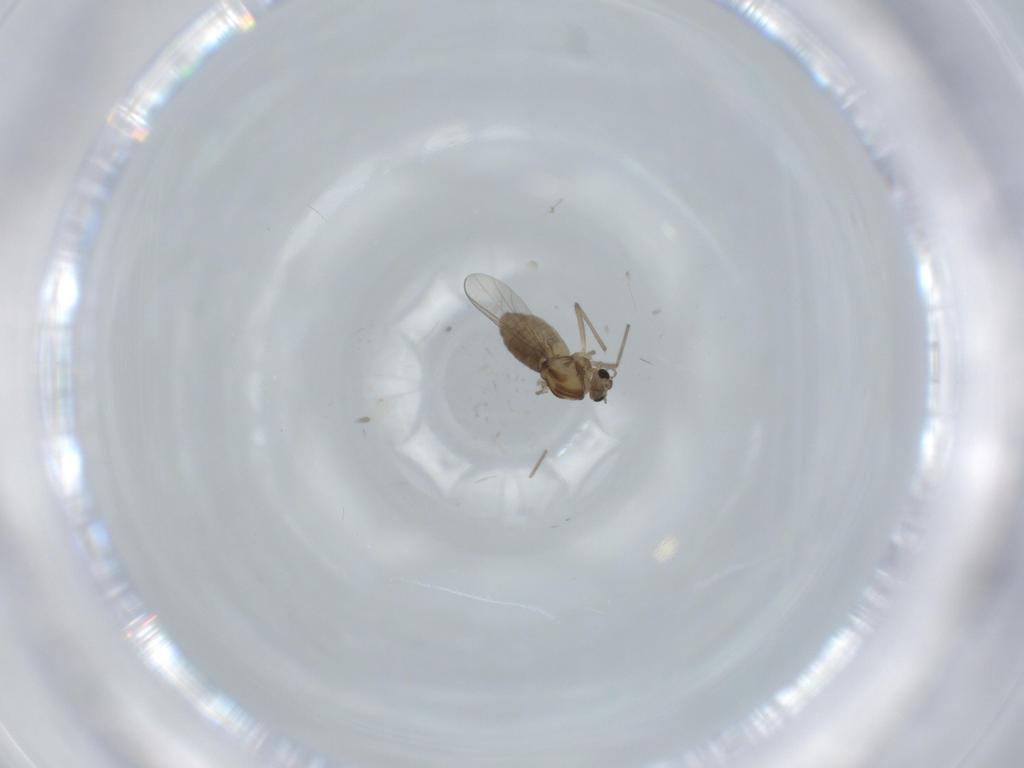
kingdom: Animalia
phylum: Arthropoda
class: Insecta
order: Diptera
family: Chironomidae
